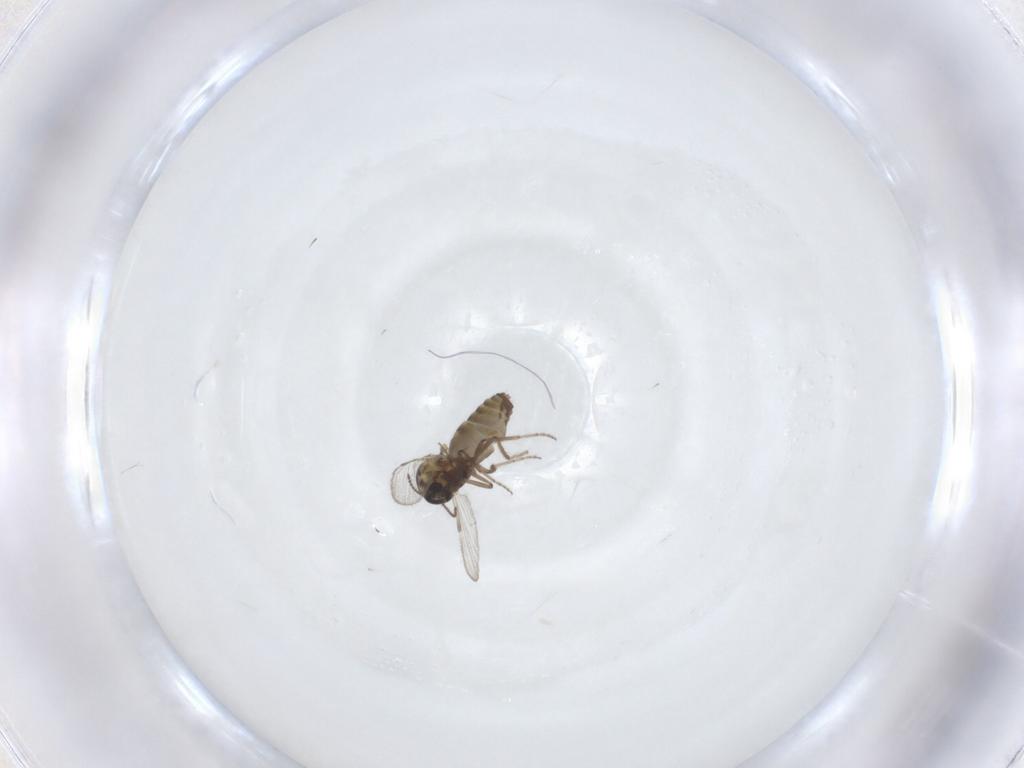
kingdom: Animalia
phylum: Arthropoda
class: Insecta
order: Diptera
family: Ceratopogonidae
